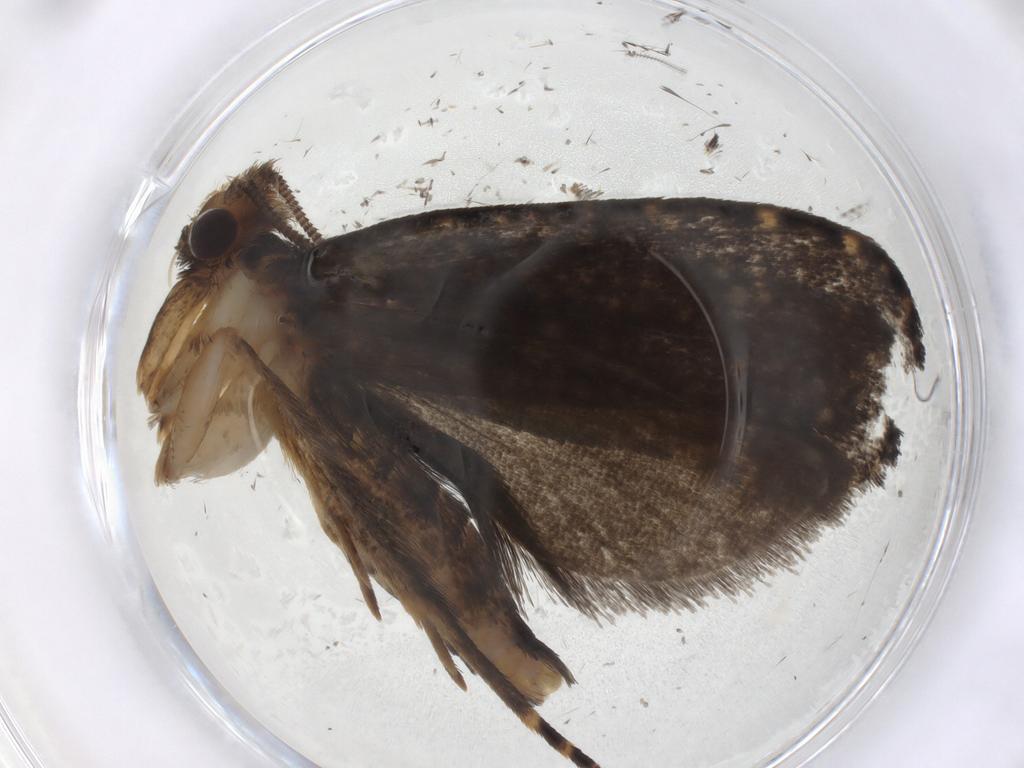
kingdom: Animalia
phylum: Arthropoda
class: Insecta
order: Lepidoptera
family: Tineidae
